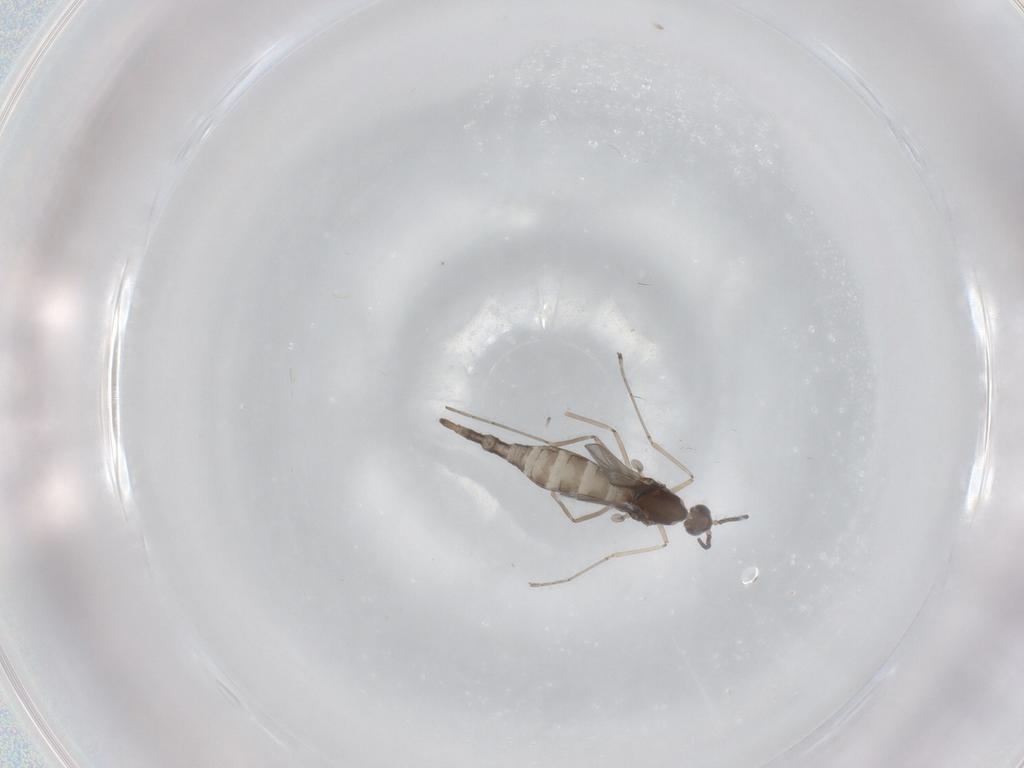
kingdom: Animalia
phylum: Arthropoda
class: Insecta
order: Diptera
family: Cecidomyiidae
